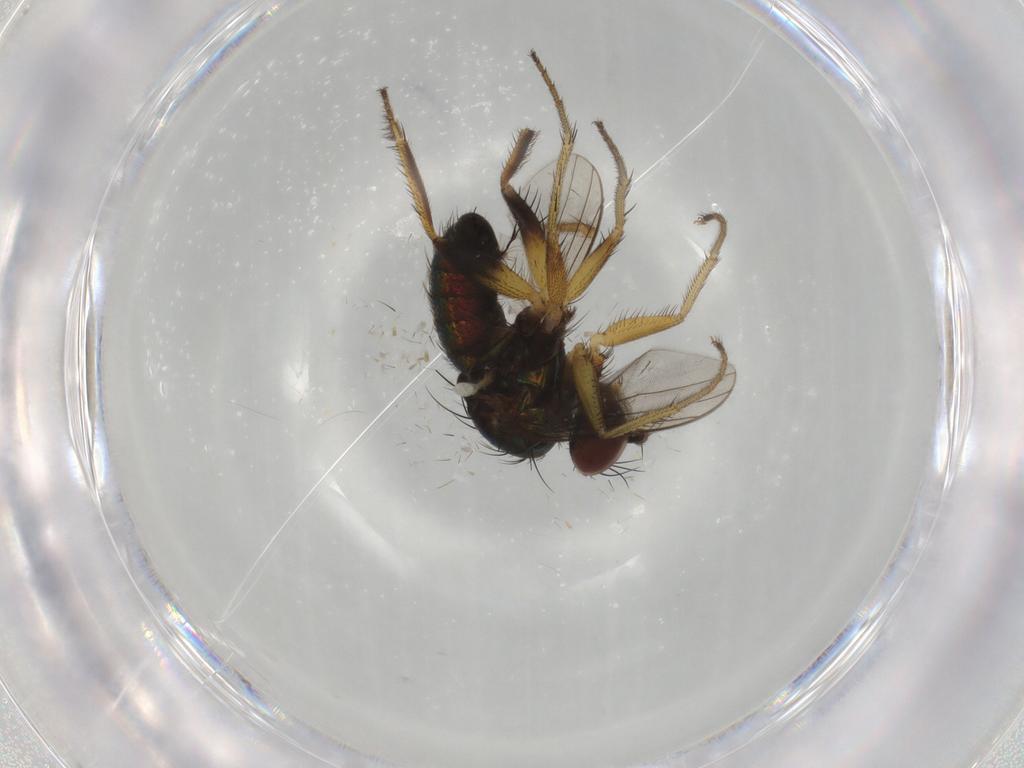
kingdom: Animalia
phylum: Arthropoda
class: Insecta
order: Diptera
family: Dolichopodidae
